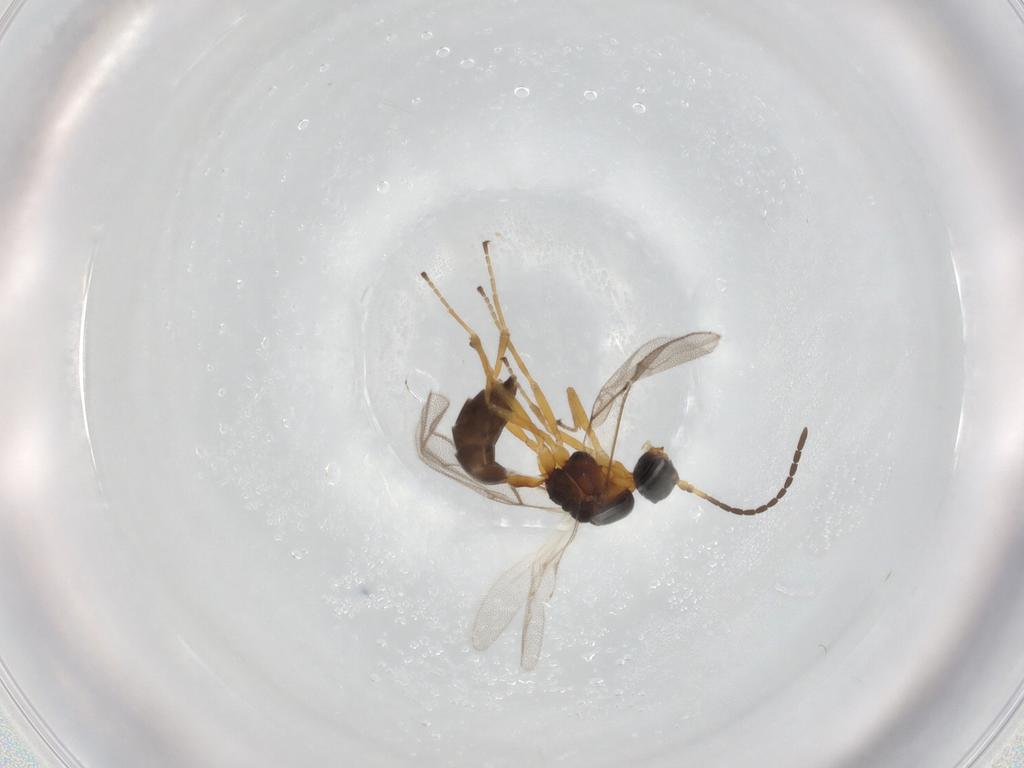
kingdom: Animalia
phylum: Arthropoda
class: Insecta
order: Hymenoptera
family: Braconidae
